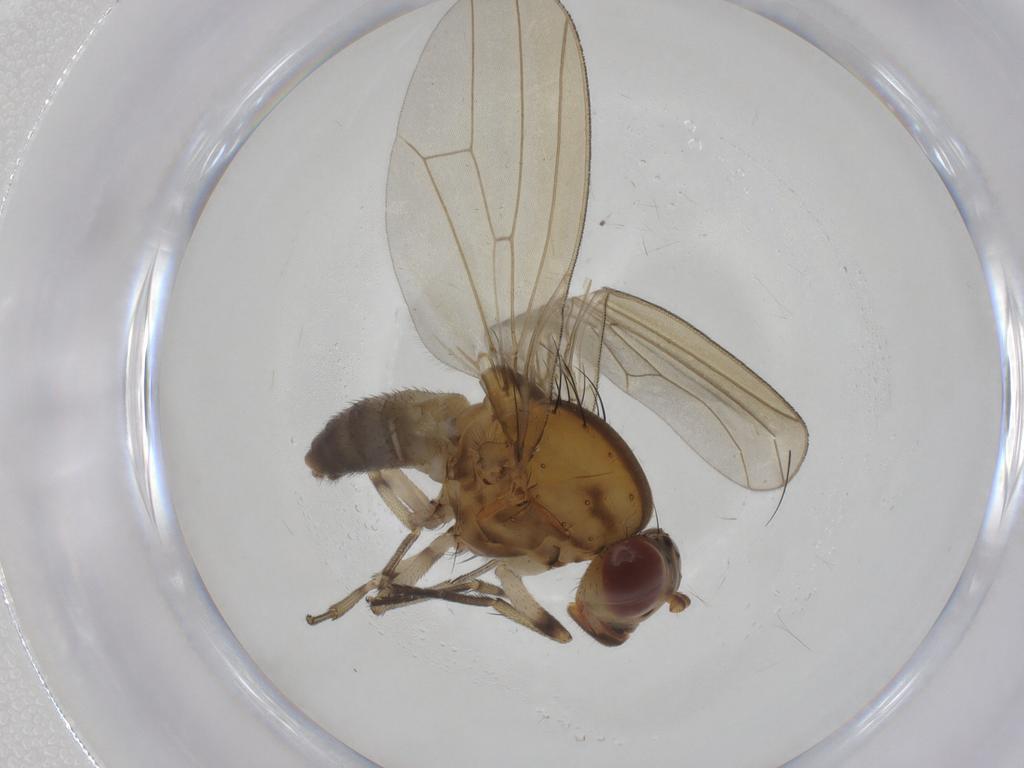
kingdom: Animalia
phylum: Arthropoda
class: Insecta
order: Diptera
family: Lauxaniidae
